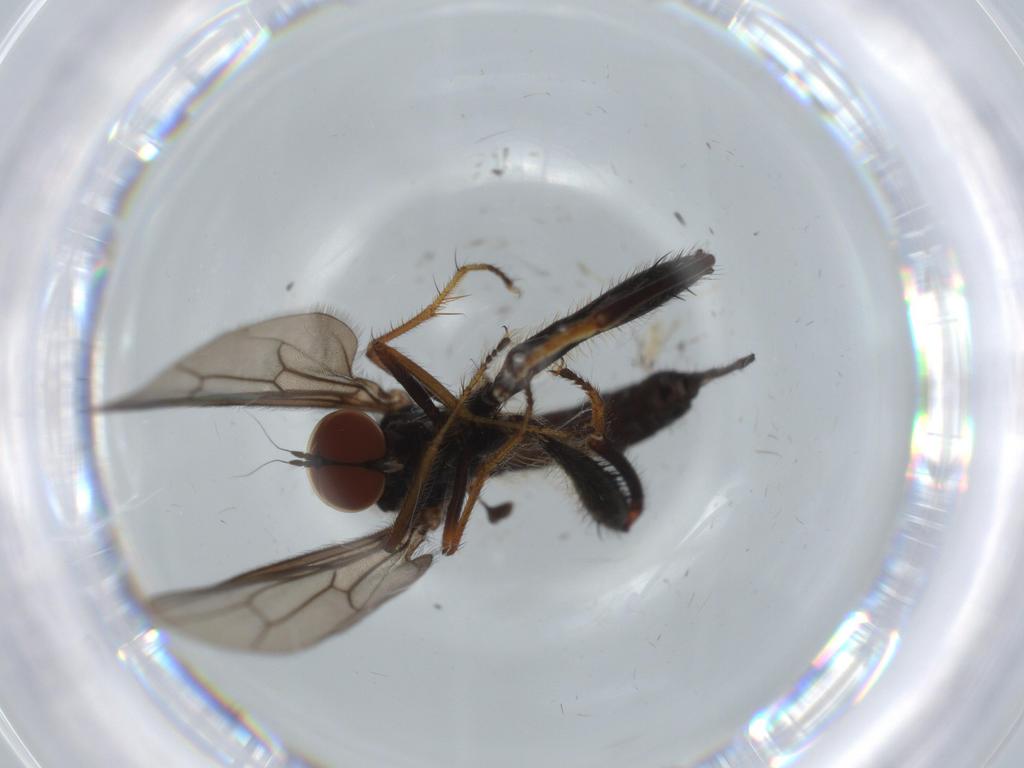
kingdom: Animalia
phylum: Arthropoda
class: Insecta
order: Diptera
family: Hybotidae
